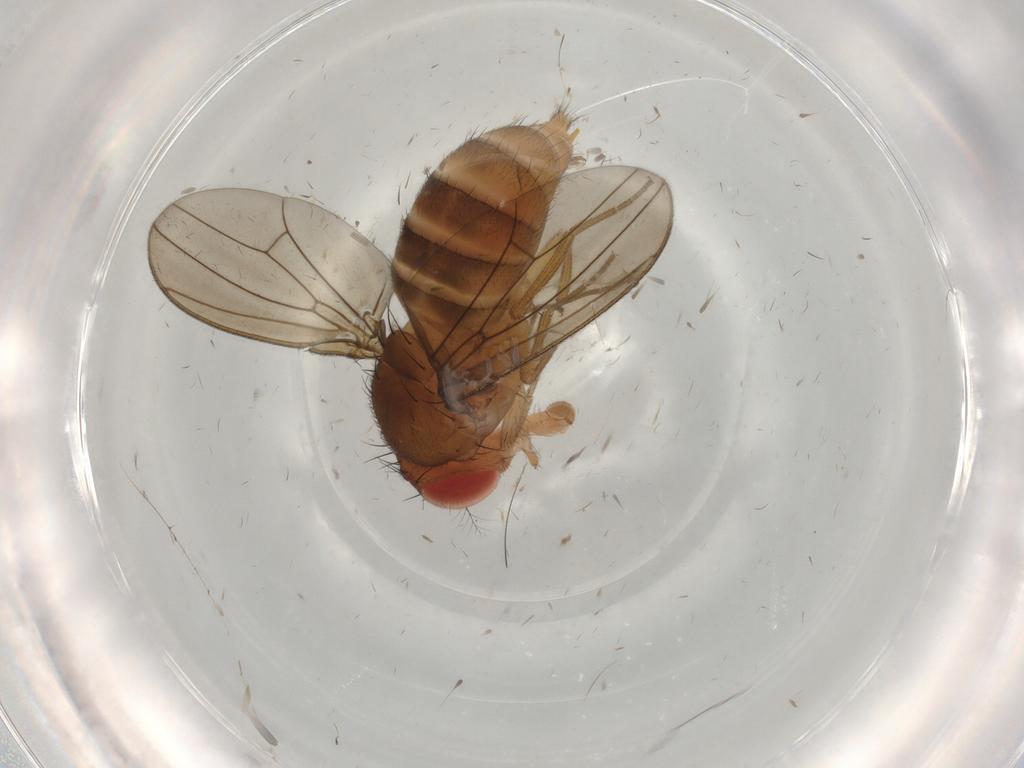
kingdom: Animalia
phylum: Arthropoda
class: Insecta
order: Diptera
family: Drosophilidae
